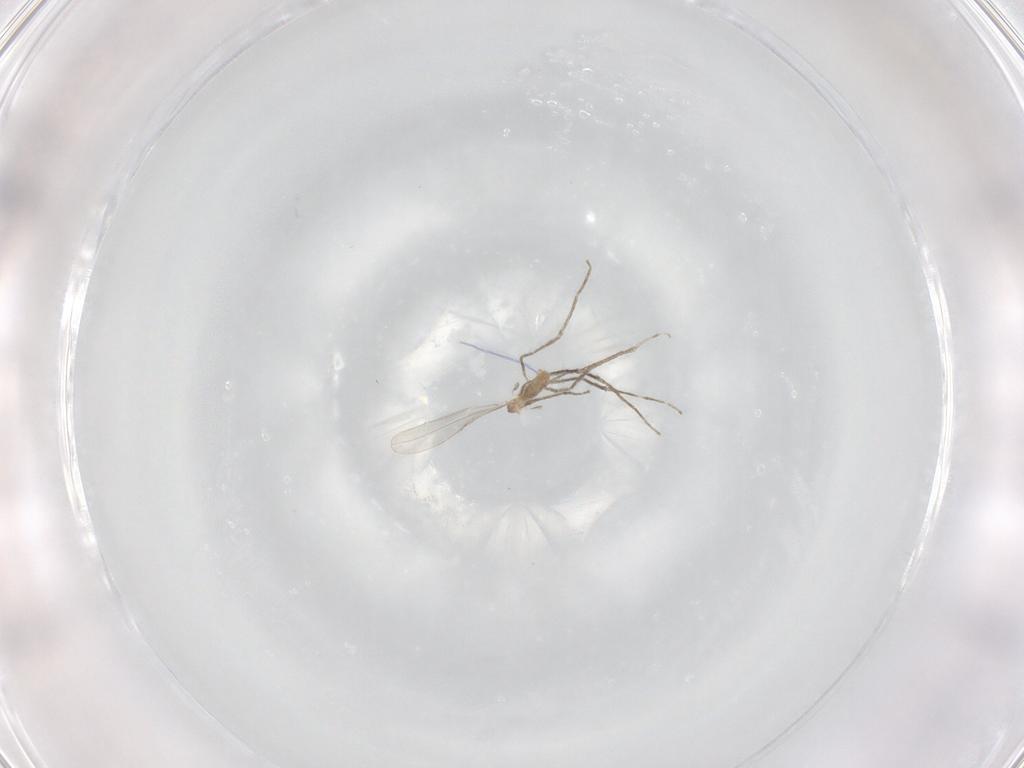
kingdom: Animalia
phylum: Arthropoda
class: Insecta
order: Diptera
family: Cecidomyiidae
